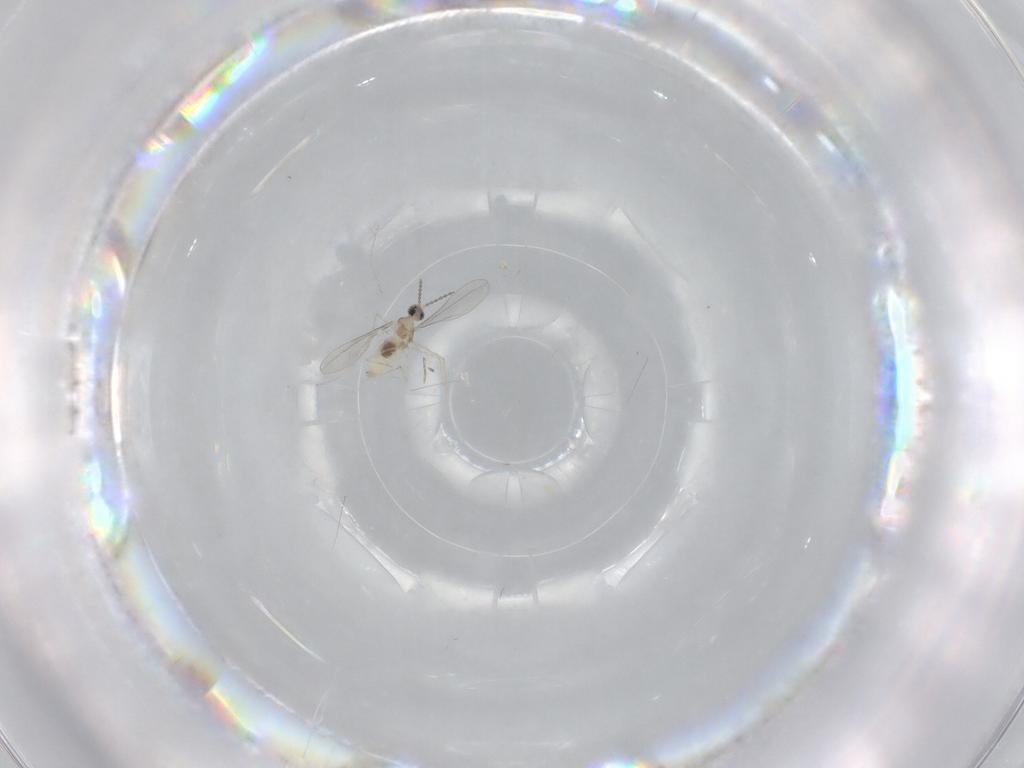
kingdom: Animalia
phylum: Arthropoda
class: Insecta
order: Diptera
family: Cecidomyiidae
